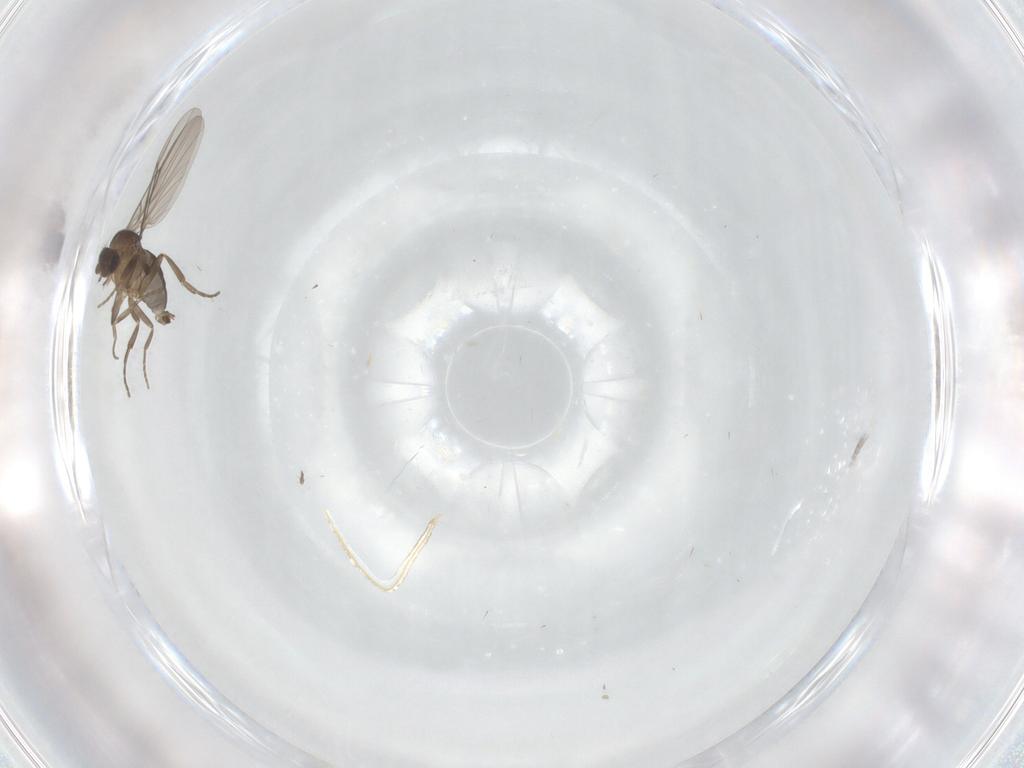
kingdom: Animalia
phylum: Arthropoda
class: Insecta
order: Diptera
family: Limoniidae
